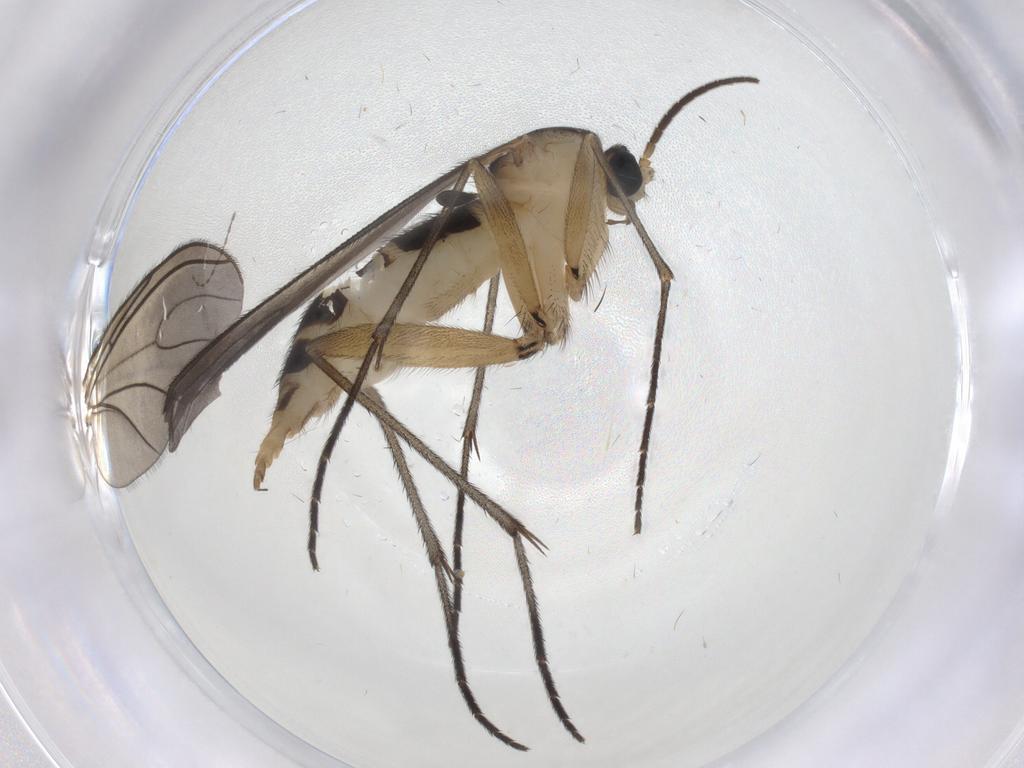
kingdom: Animalia
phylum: Arthropoda
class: Insecta
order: Diptera
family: Sciaridae
